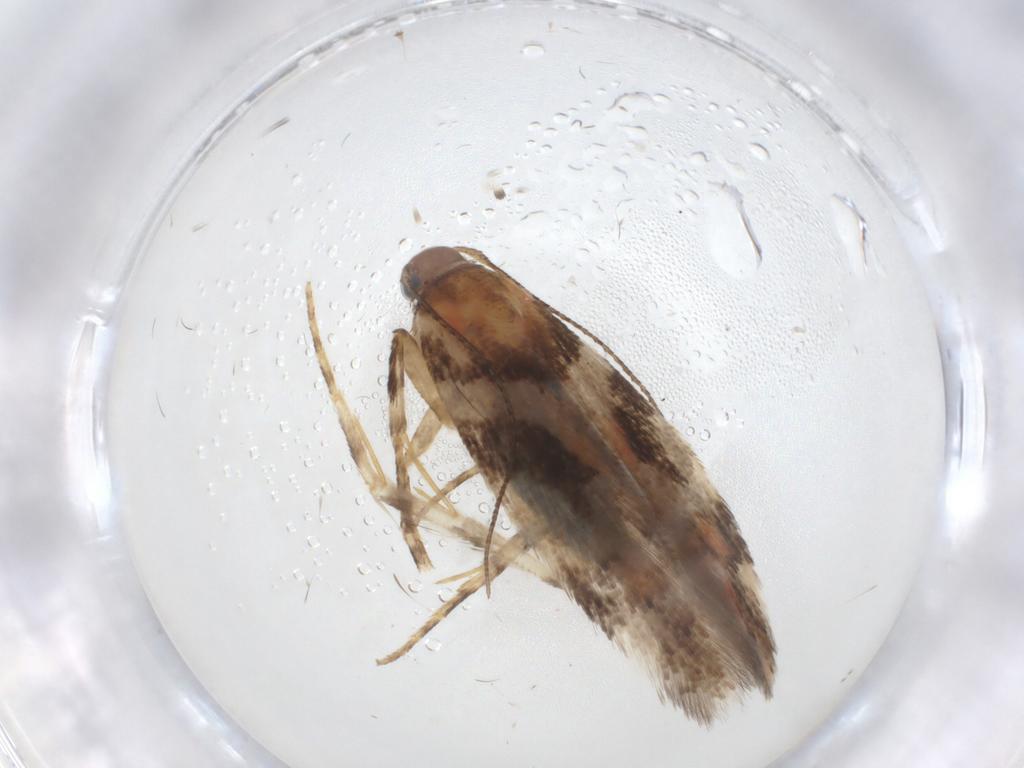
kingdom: Animalia
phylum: Arthropoda
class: Insecta
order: Lepidoptera
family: Gelechiidae
